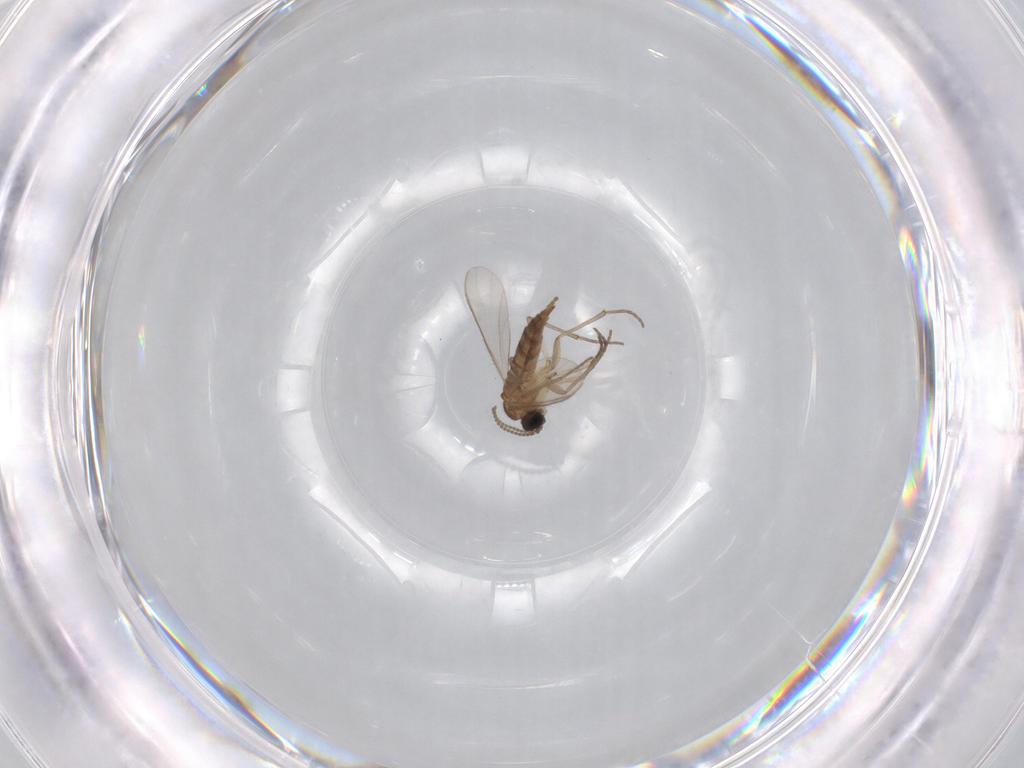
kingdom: Animalia
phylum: Arthropoda
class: Insecta
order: Diptera
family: Sciaridae
